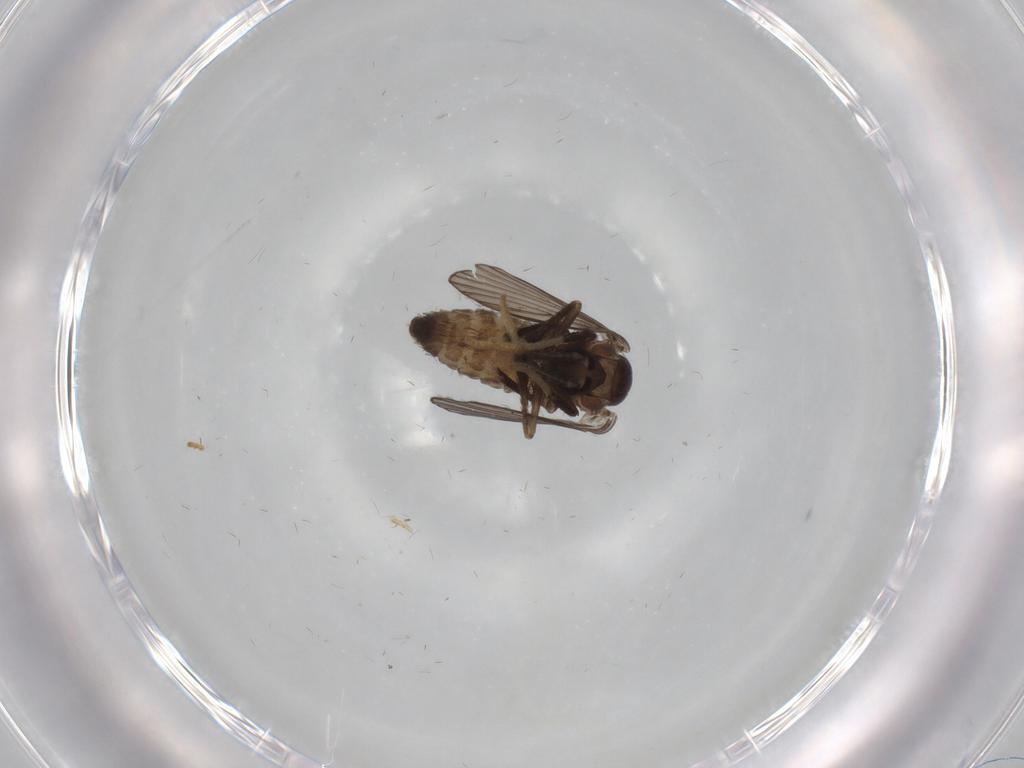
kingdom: Animalia
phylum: Arthropoda
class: Insecta
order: Diptera
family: Psychodidae
